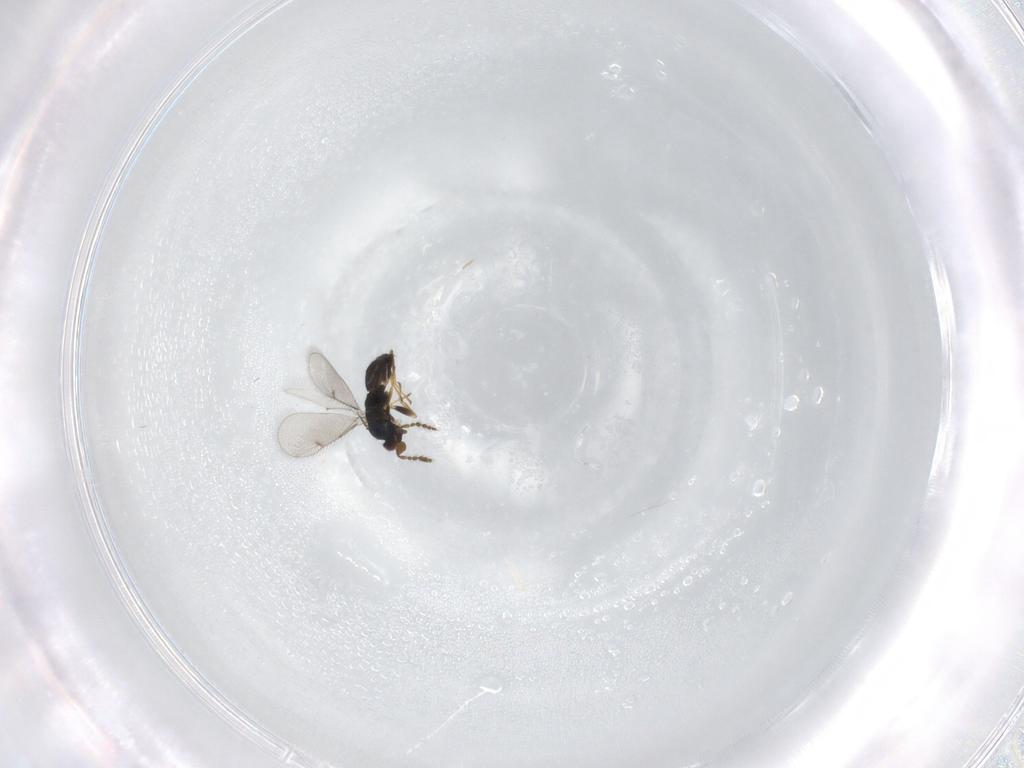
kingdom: Animalia
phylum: Arthropoda
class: Insecta
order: Hymenoptera
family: Eulophidae
